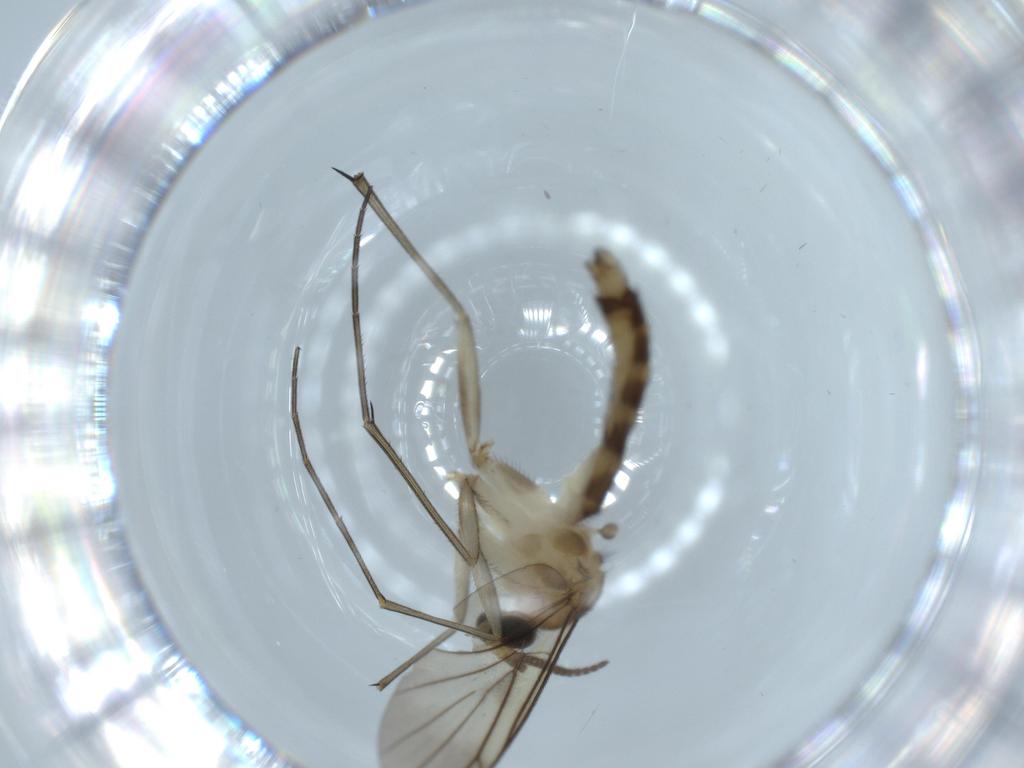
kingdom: Animalia
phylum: Arthropoda
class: Insecta
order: Diptera
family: Mycetophilidae
